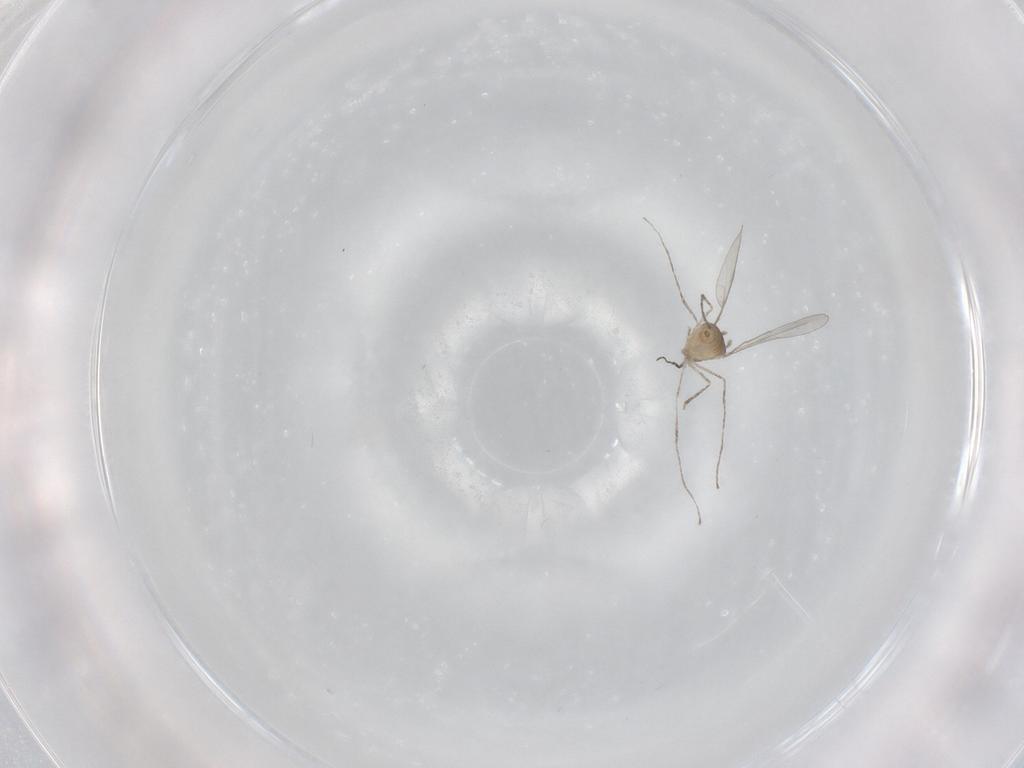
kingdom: Animalia
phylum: Arthropoda
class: Insecta
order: Diptera
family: Cecidomyiidae
